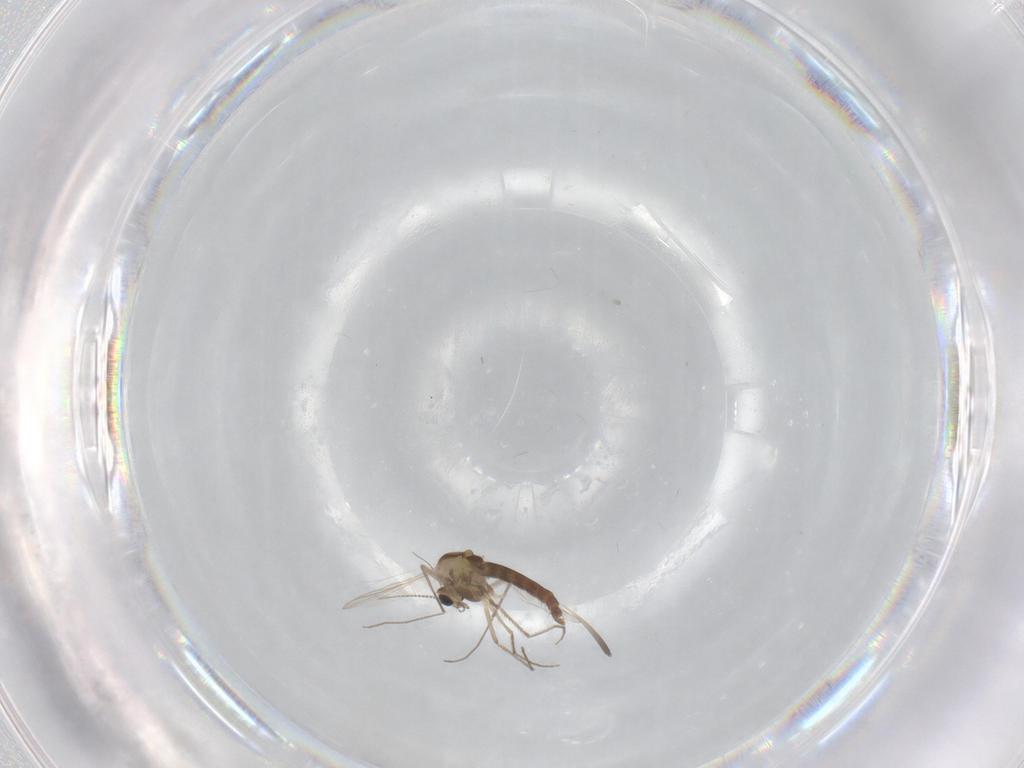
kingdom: Animalia
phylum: Arthropoda
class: Insecta
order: Diptera
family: Chironomidae
